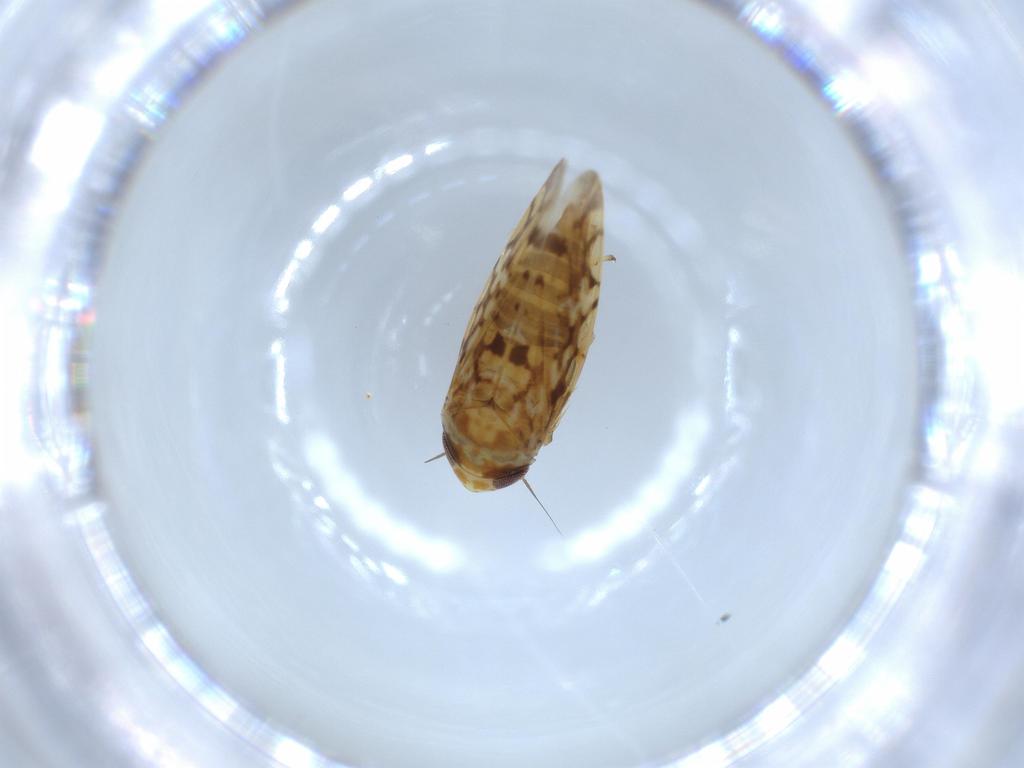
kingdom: Animalia
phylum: Arthropoda
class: Insecta
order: Hemiptera
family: Cicadellidae
